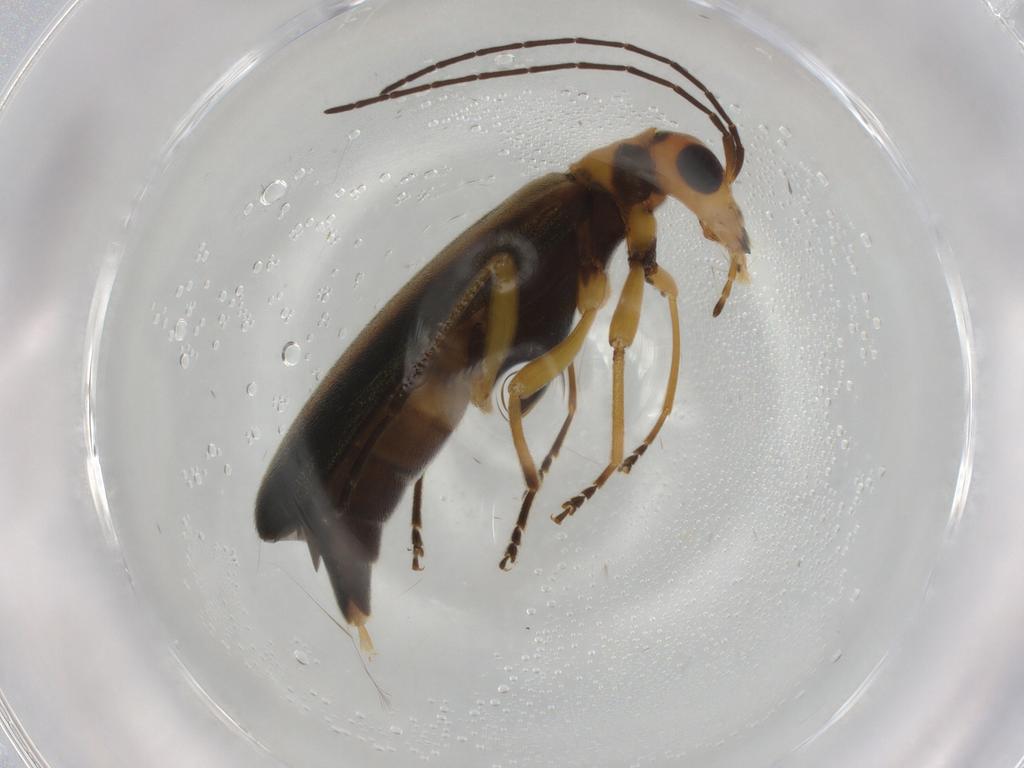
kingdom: Animalia
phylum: Arthropoda
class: Insecta
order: Coleoptera
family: Oedemeridae
